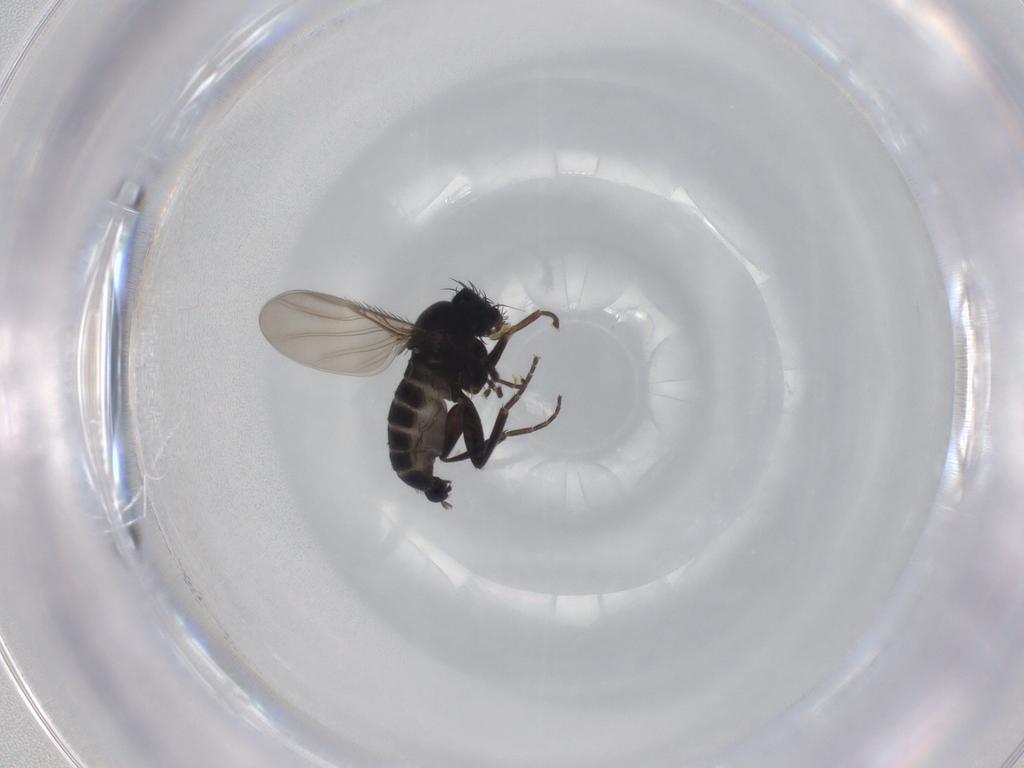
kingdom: Animalia
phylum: Arthropoda
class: Insecta
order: Diptera
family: Phoridae
